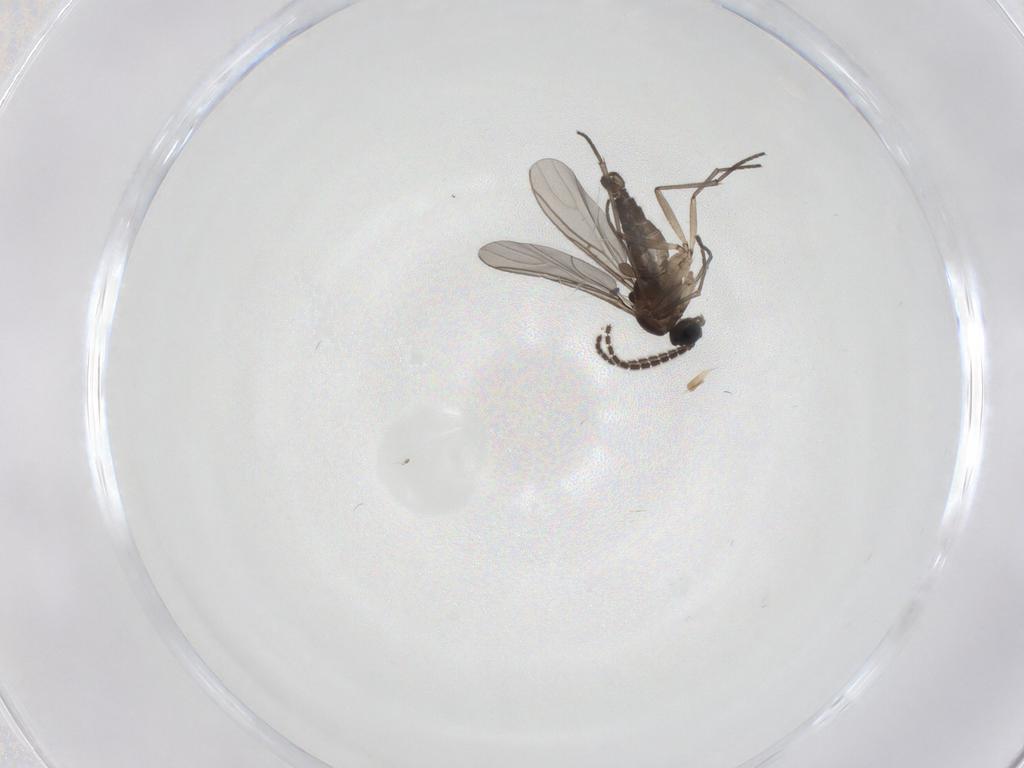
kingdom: Animalia
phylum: Arthropoda
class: Insecta
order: Diptera
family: Sciaridae
